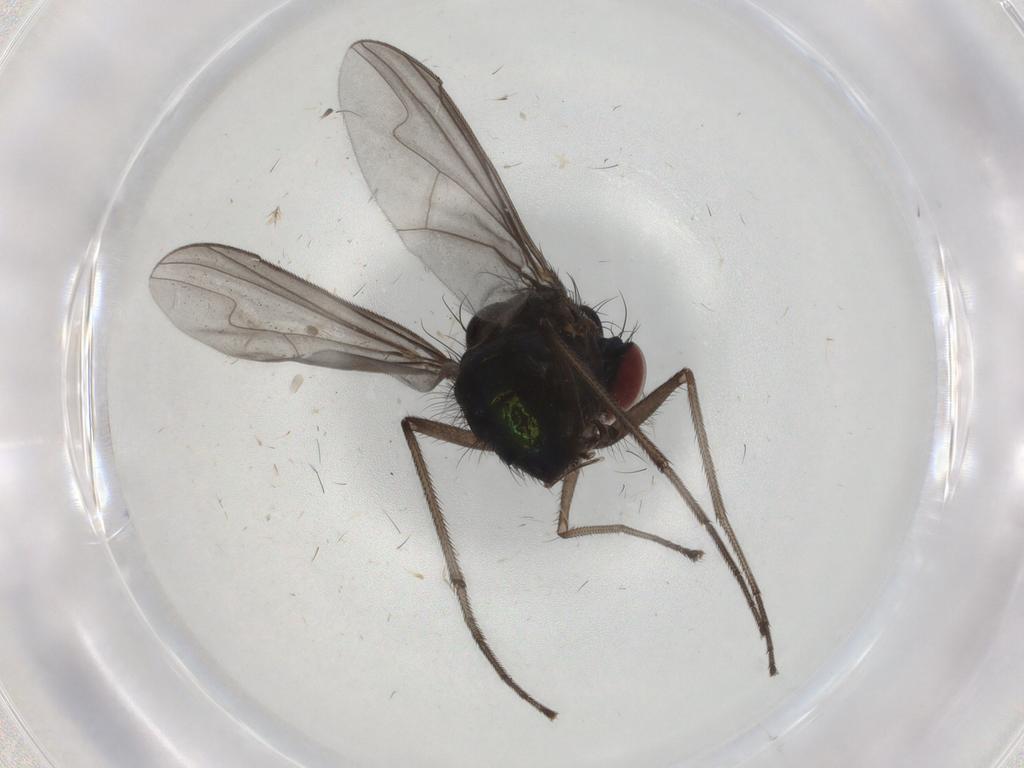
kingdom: Animalia
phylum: Arthropoda
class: Insecta
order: Diptera
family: Dolichopodidae
